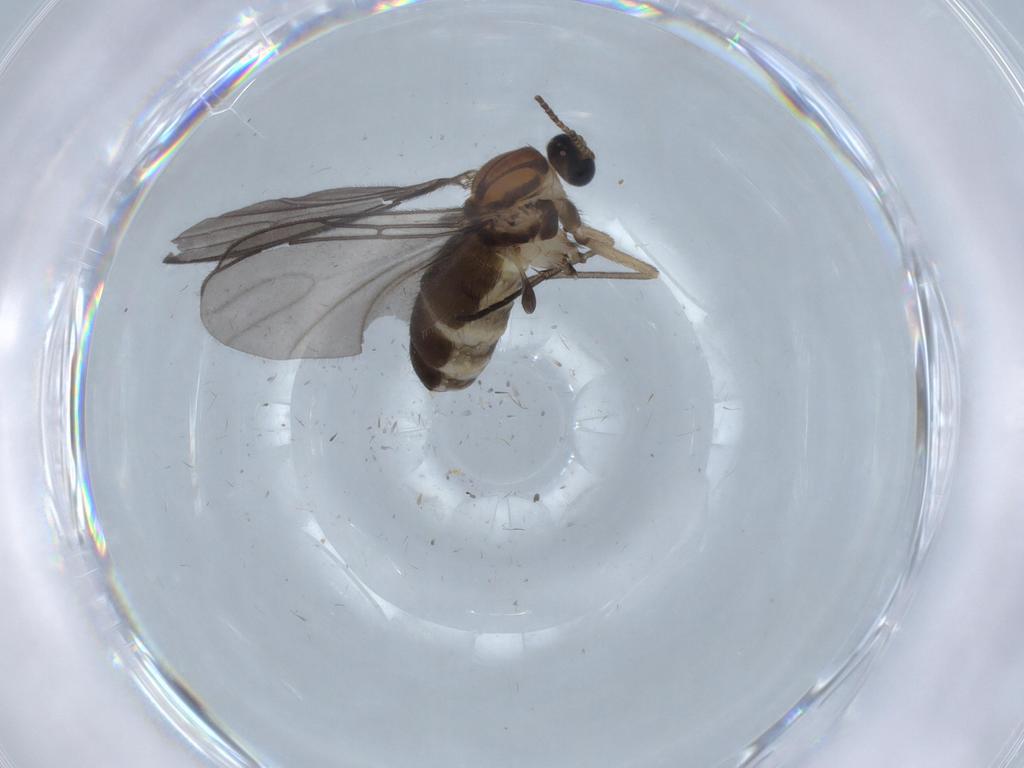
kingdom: Animalia
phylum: Arthropoda
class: Insecta
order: Diptera
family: Sciaridae
